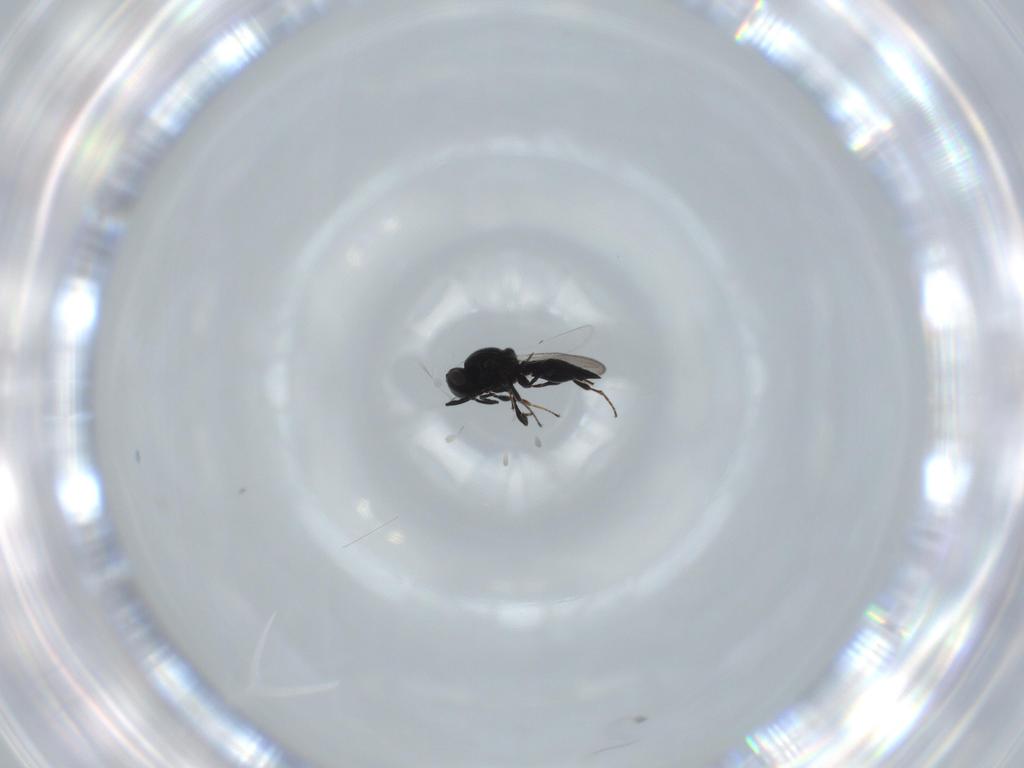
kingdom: Animalia
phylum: Arthropoda
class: Insecta
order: Diptera
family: Mythicomyiidae
